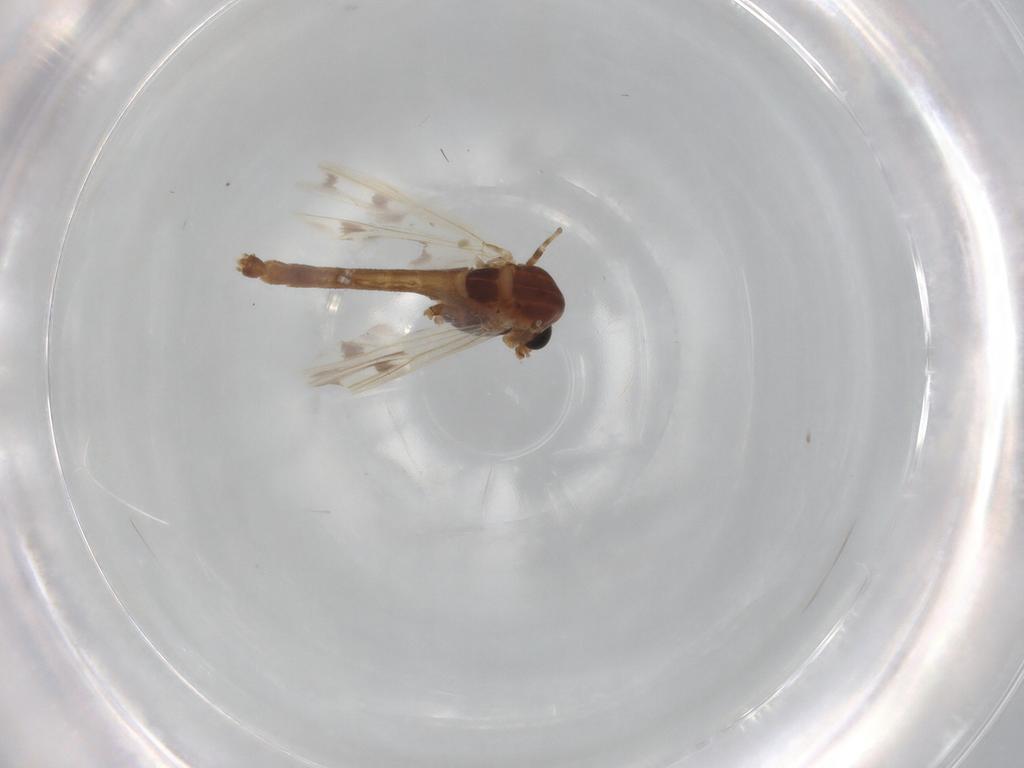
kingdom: Animalia
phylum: Arthropoda
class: Insecta
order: Diptera
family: Chironomidae
